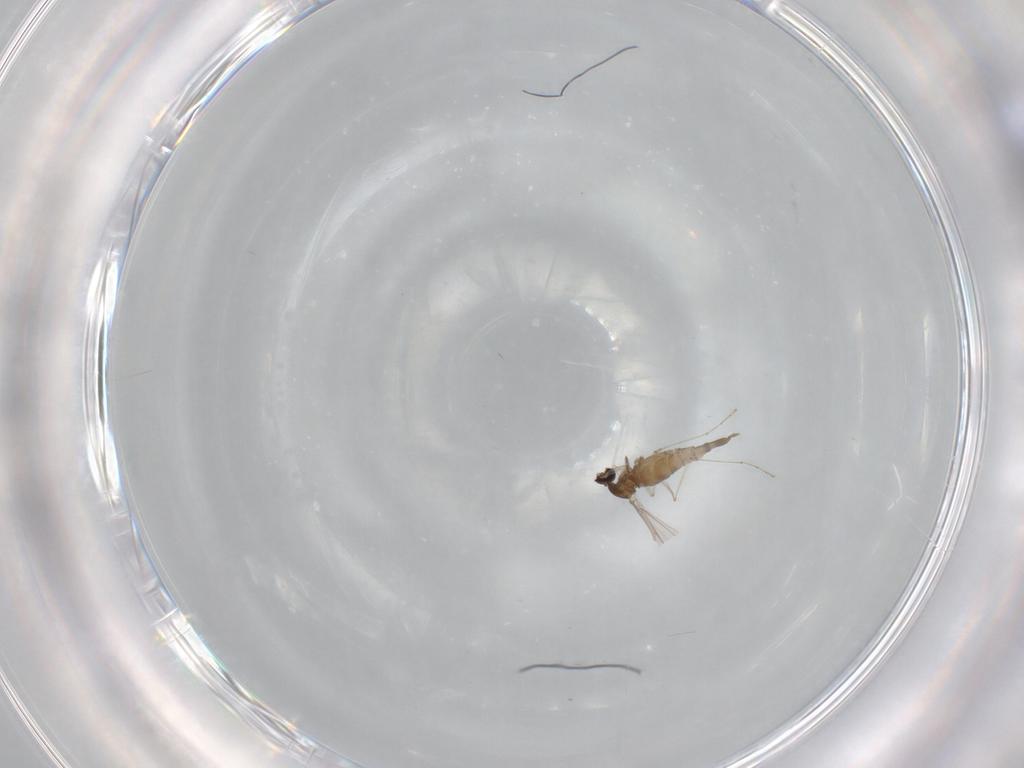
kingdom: Animalia
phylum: Arthropoda
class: Insecta
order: Diptera
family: Cecidomyiidae
